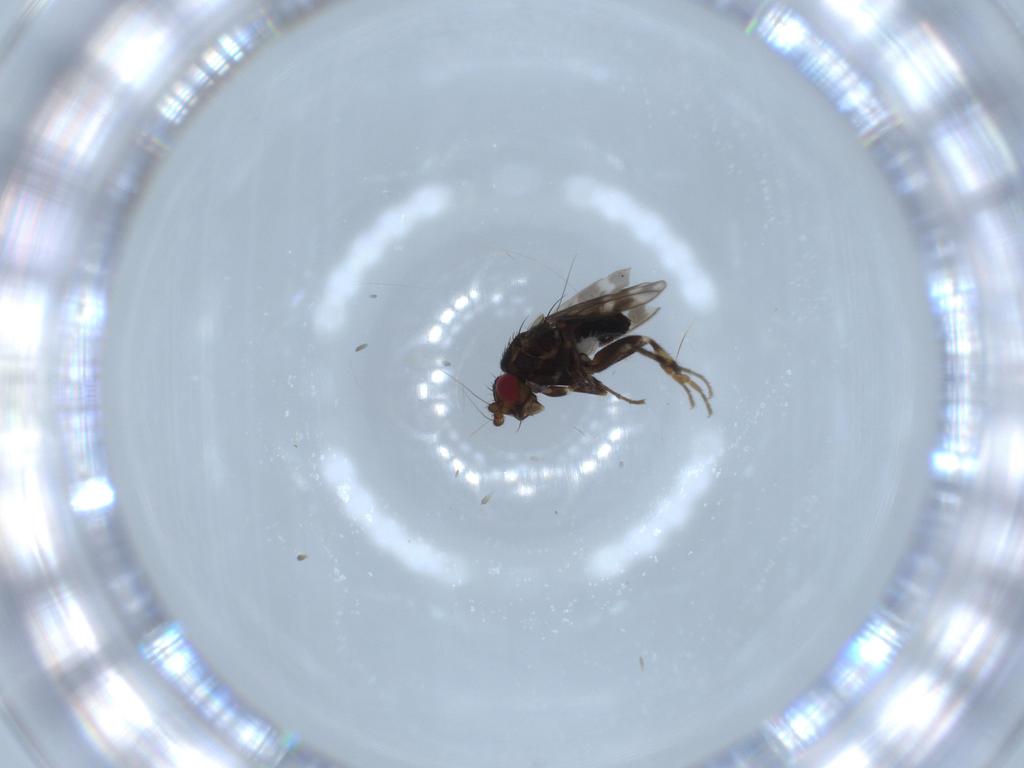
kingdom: Animalia
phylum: Arthropoda
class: Insecta
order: Diptera
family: Sphaeroceridae
